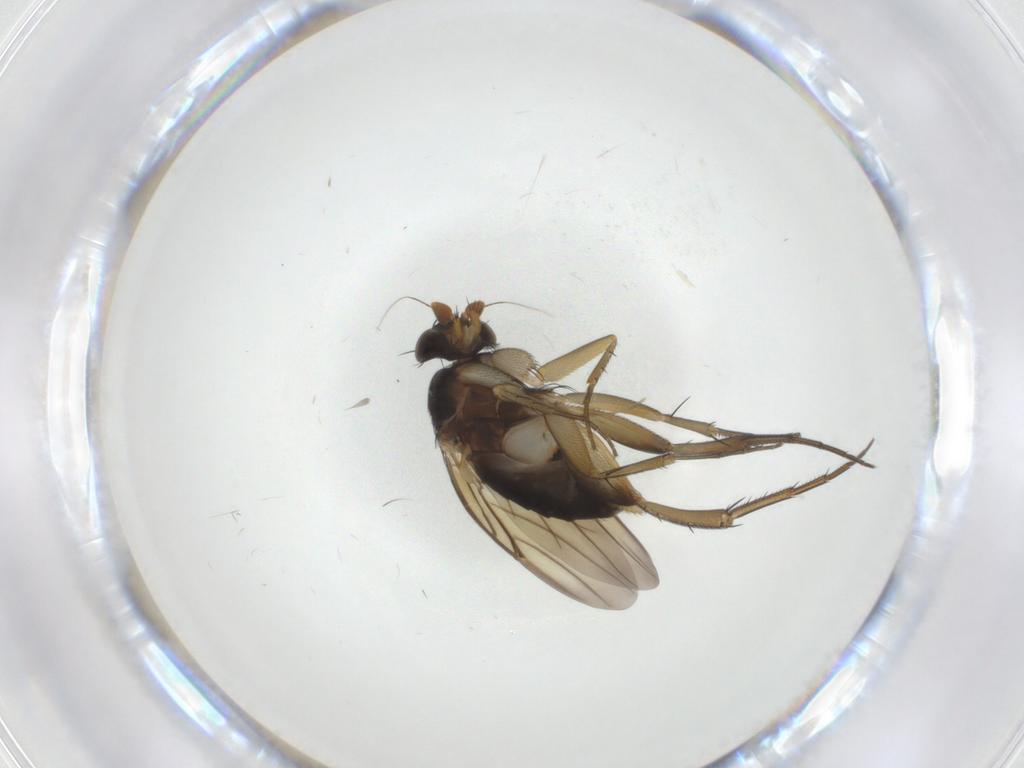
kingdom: Animalia
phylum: Arthropoda
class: Insecta
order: Diptera
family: Phoridae
